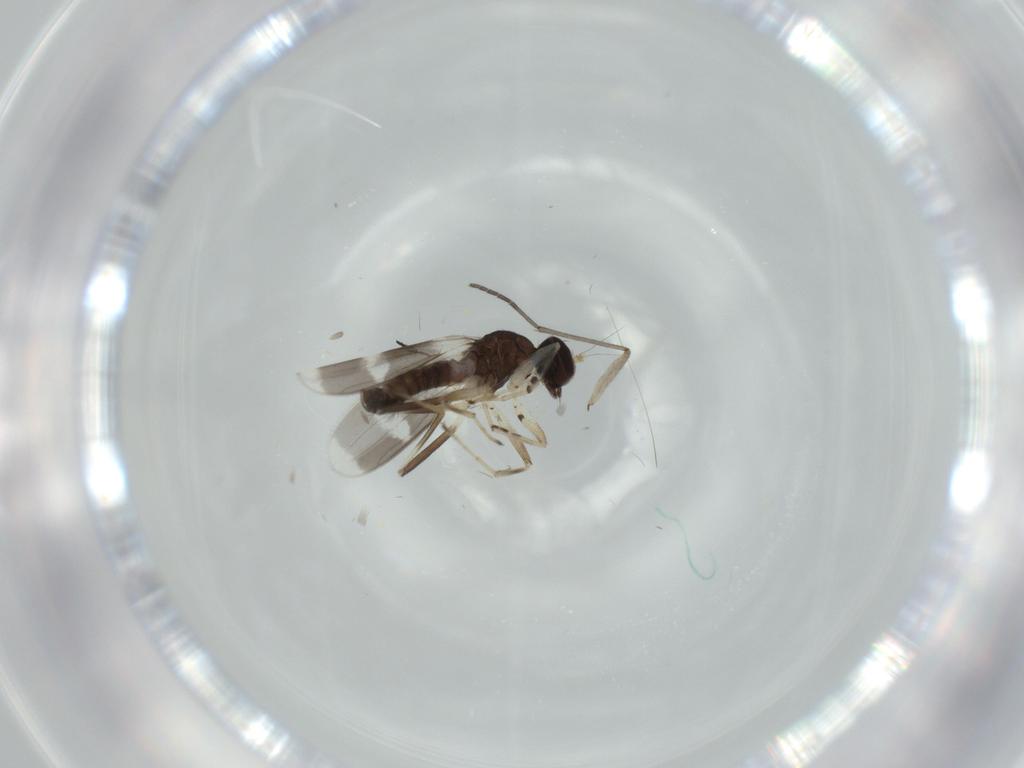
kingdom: Animalia
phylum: Arthropoda
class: Insecta
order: Diptera
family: Hybotidae
